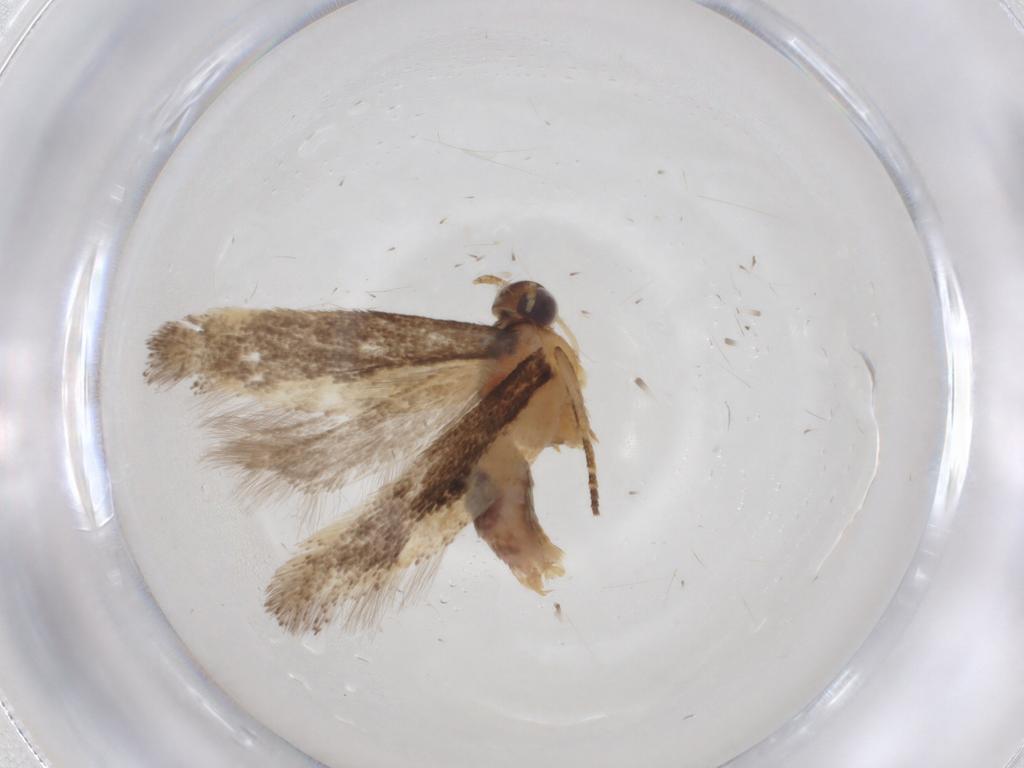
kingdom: Animalia
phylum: Arthropoda
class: Insecta
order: Lepidoptera
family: Gelechiidae
